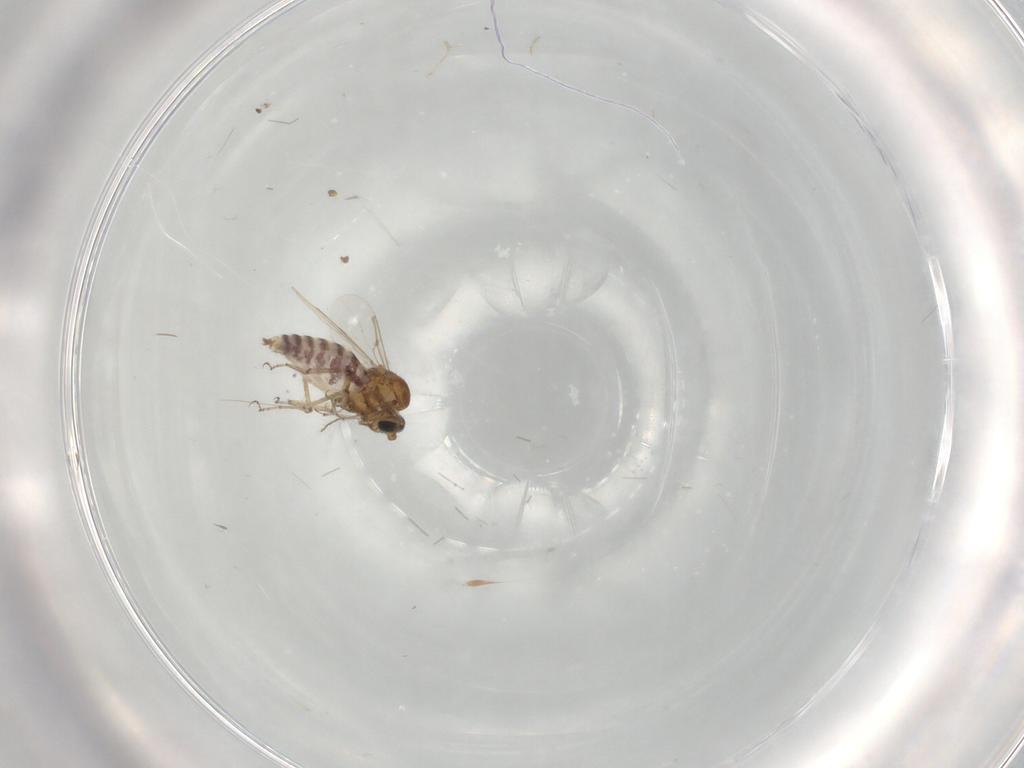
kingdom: Animalia
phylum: Arthropoda
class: Insecta
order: Diptera
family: Ceratopogonidae
